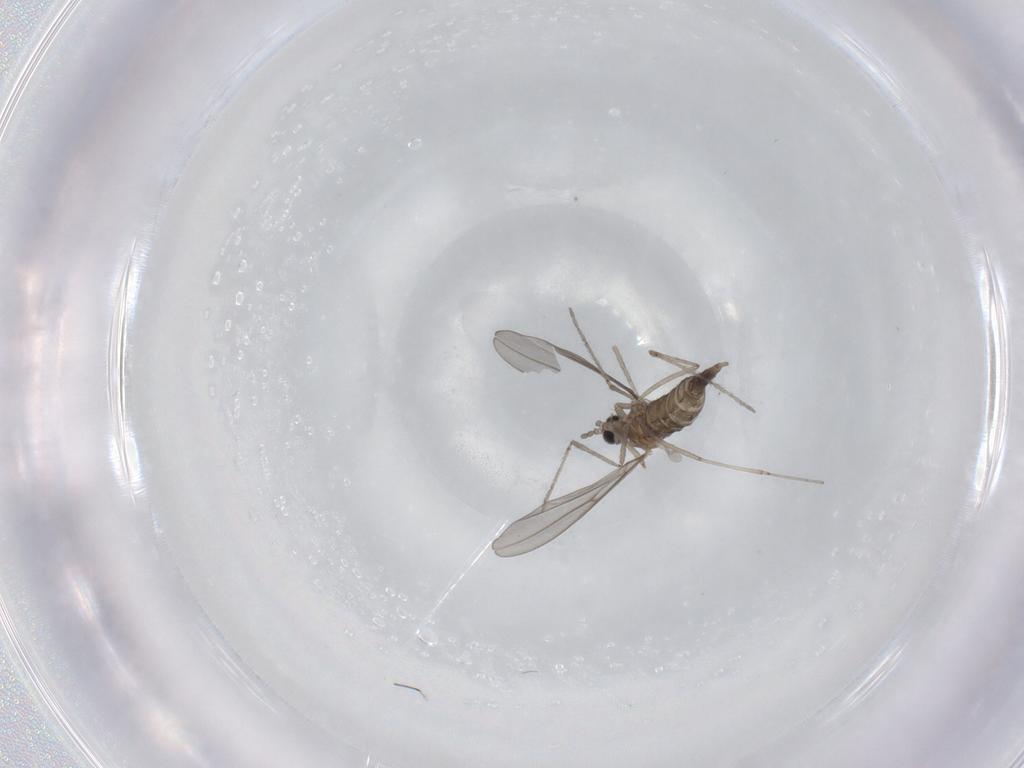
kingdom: Animalia
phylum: Arthropoda
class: Insecta
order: Diptera
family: Cecidomyiidae
